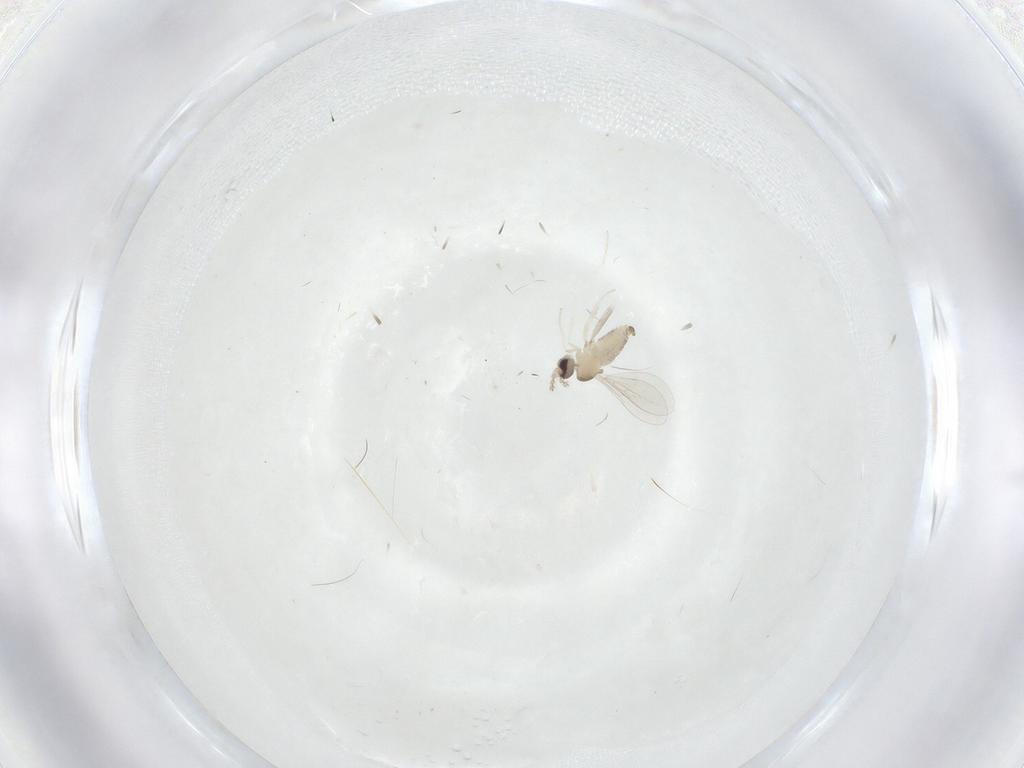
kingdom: Animalia
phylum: Arthropoda
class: Insecta
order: Diptera
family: Cecidomyiidae
